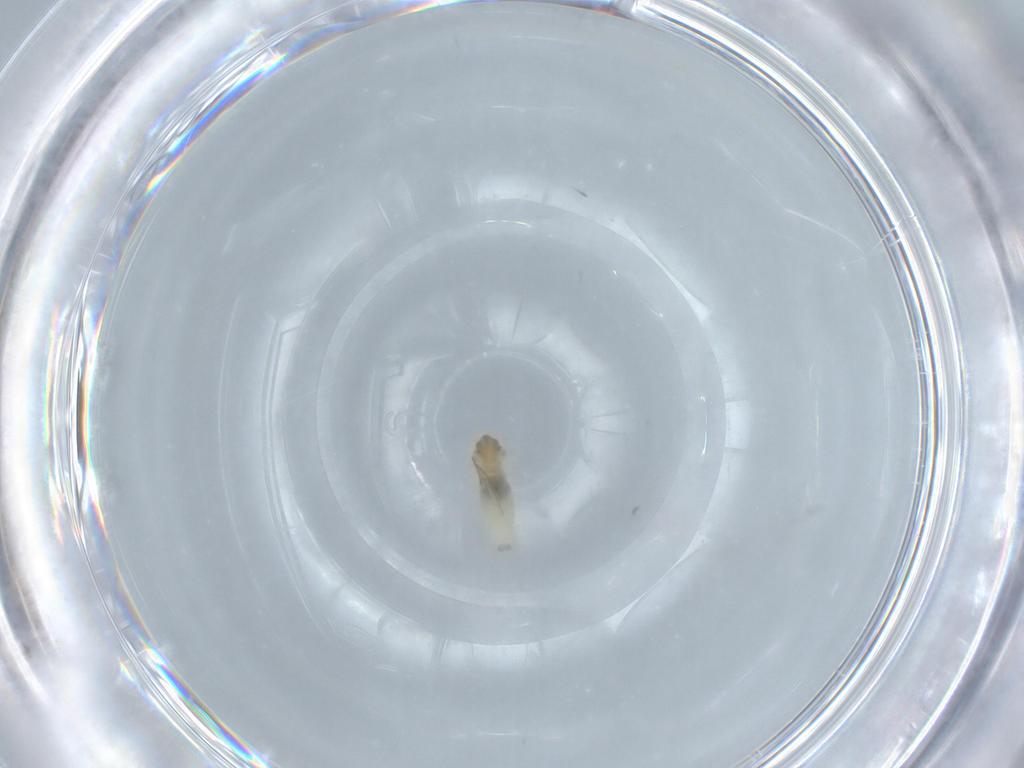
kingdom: Animalia
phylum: Arthropoda
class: Insecta
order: Diptera
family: Cecidomyiidae
